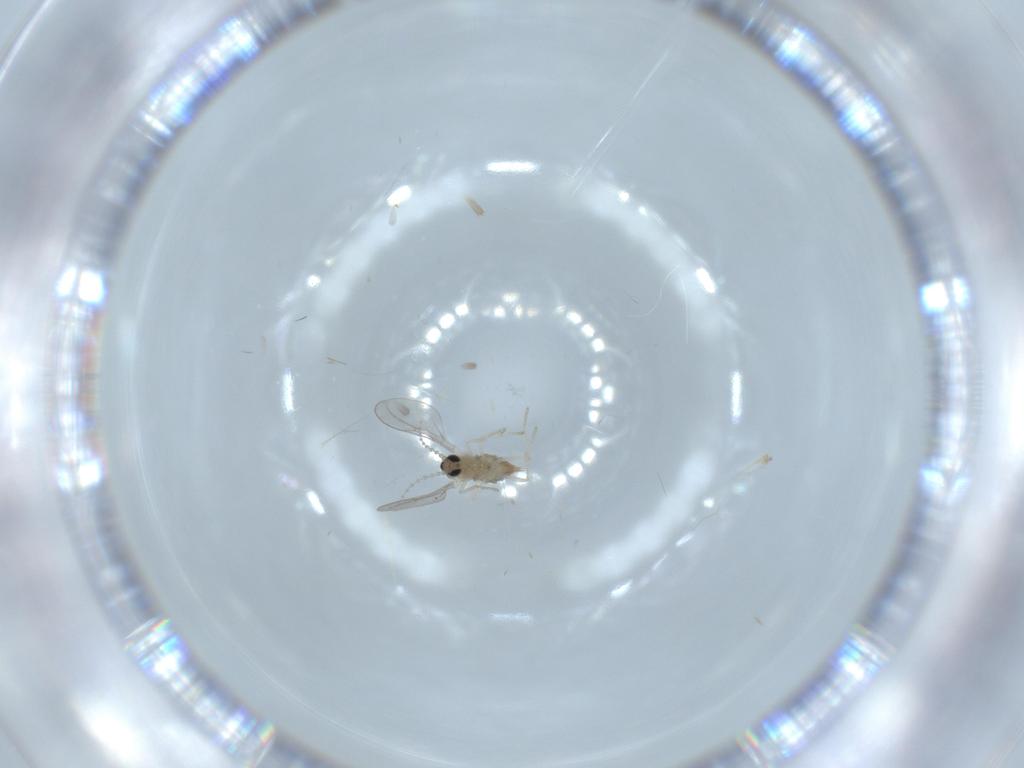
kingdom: Animalia
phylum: Arthropoda
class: Insecta
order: Diptera
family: Cecidomyiidae
